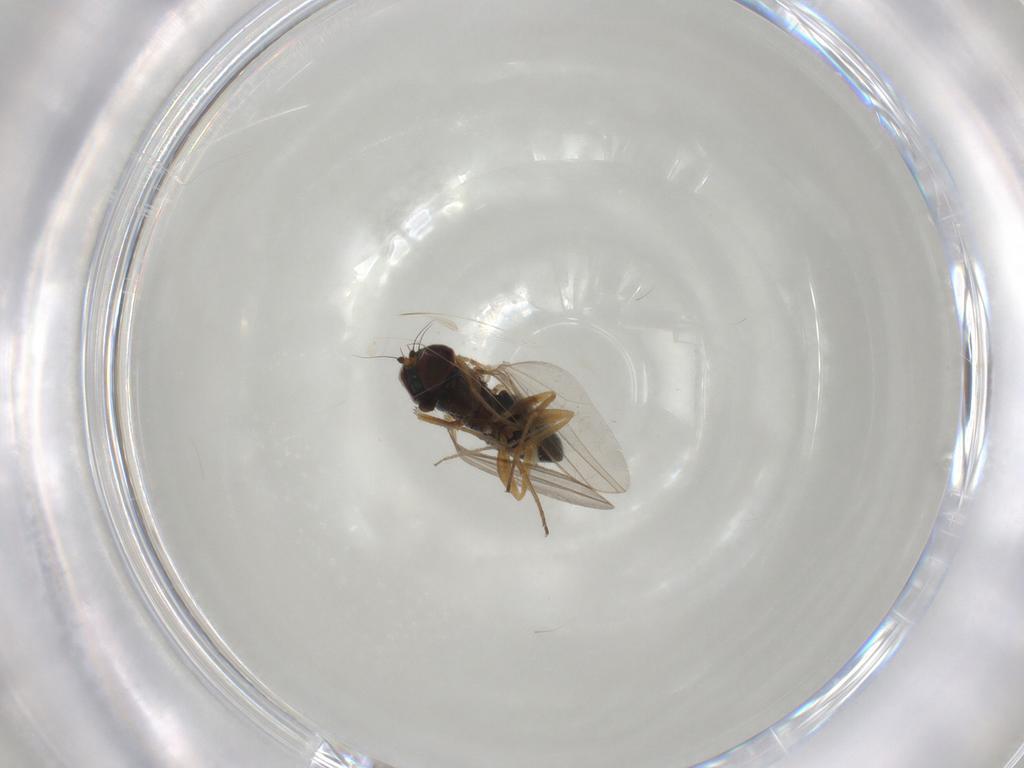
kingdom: Animalia
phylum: Arthropoda
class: Insecta
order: Diptera
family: Dolichopodidae
